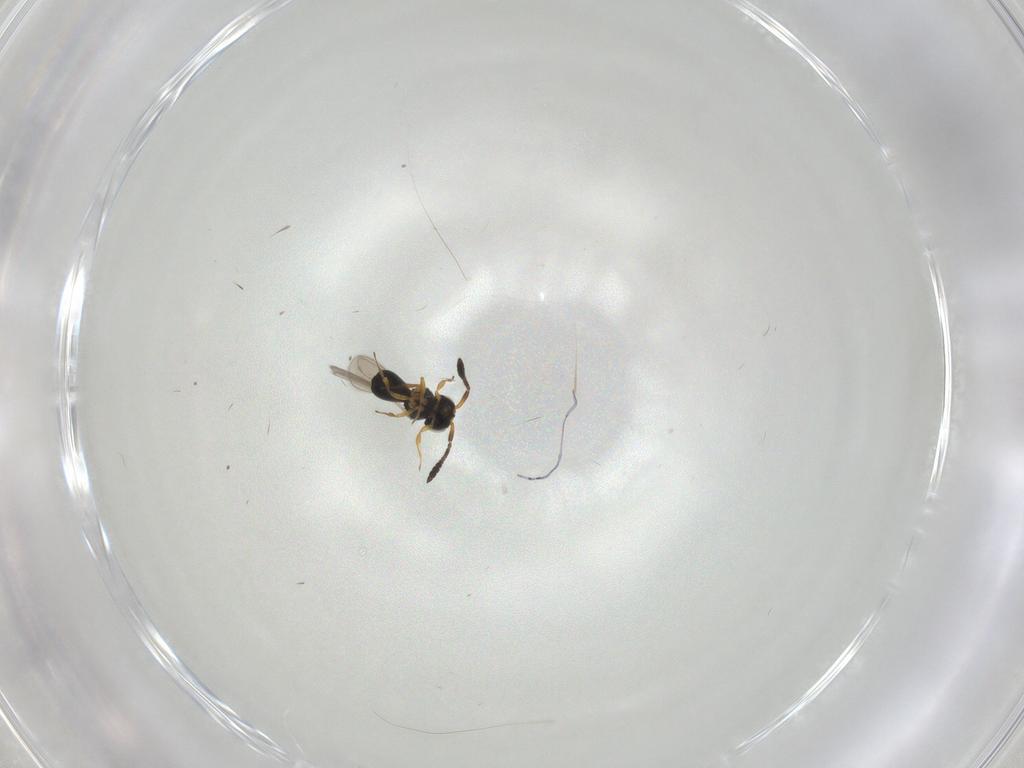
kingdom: Animalia
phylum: Arthropoda
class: Insecta
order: Hymenoptera
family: Scelionidae
